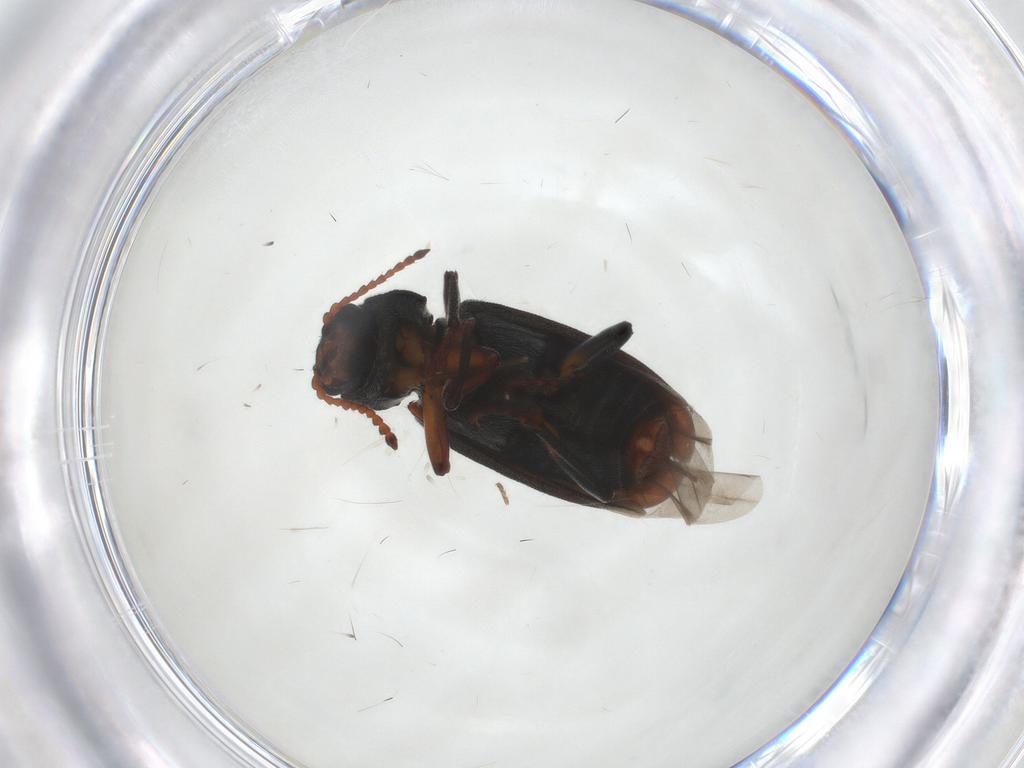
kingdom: Animalia
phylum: Arthropoda
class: Insecta
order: Coleoptera
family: Melyridae
